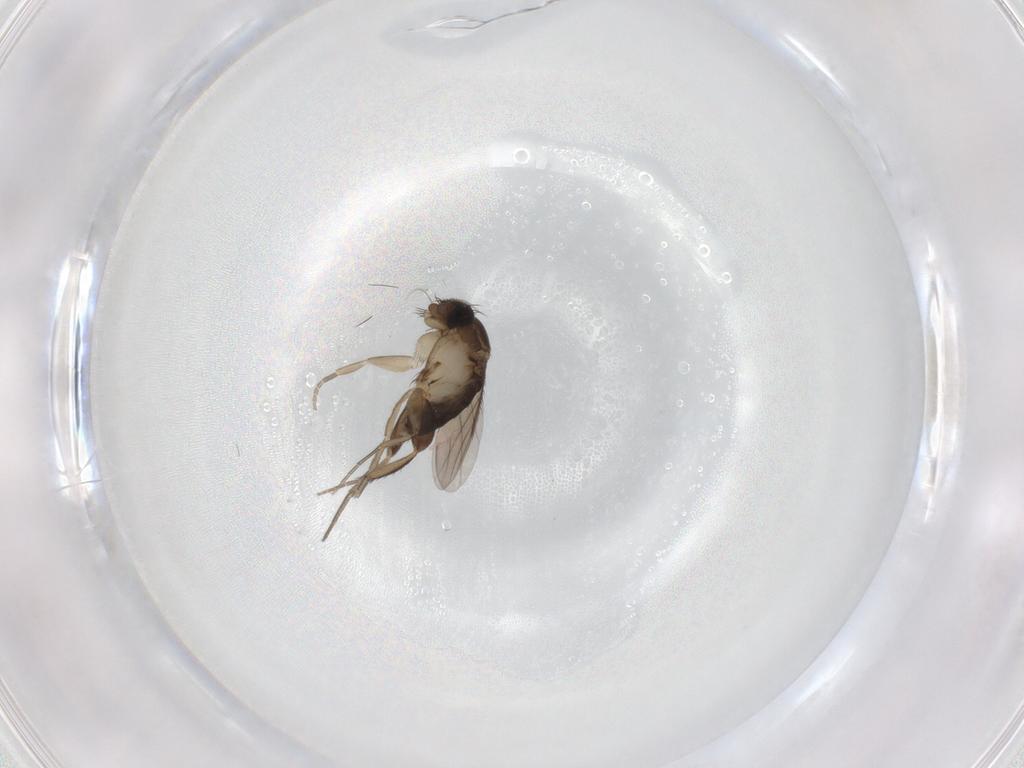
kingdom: Animalia
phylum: Arthropoda
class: Insecta
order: Diptera
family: Phoridae
